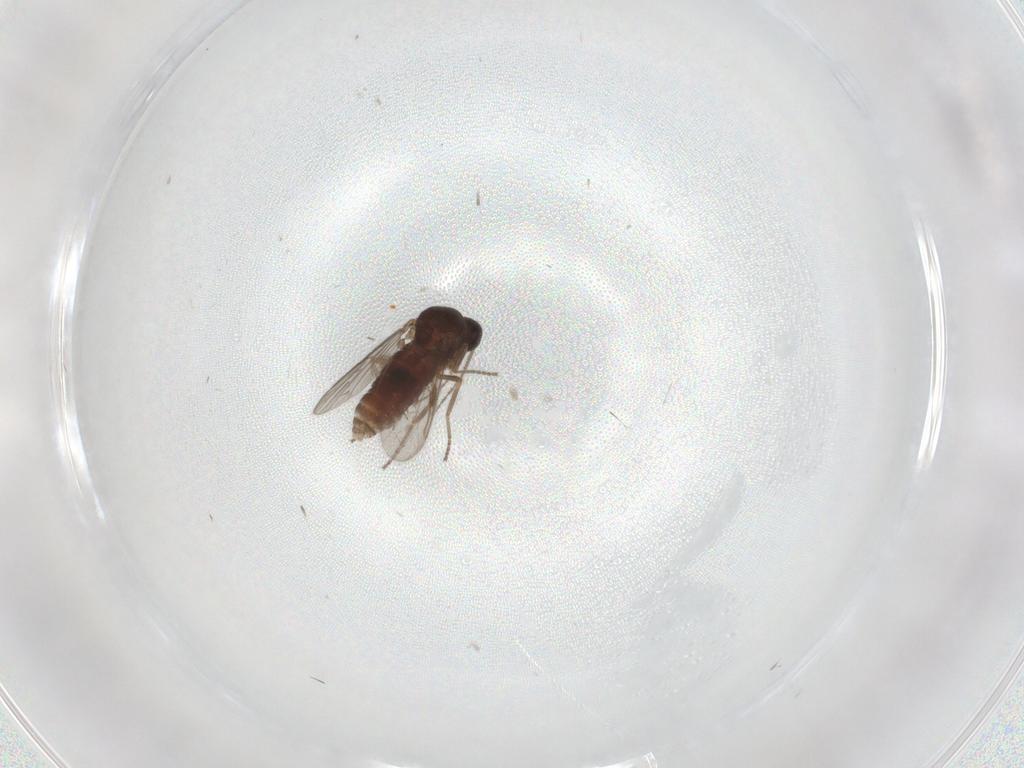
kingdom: Animalia
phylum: Arthropoda
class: Insecta
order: Diptera
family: Ceratopogonidae
